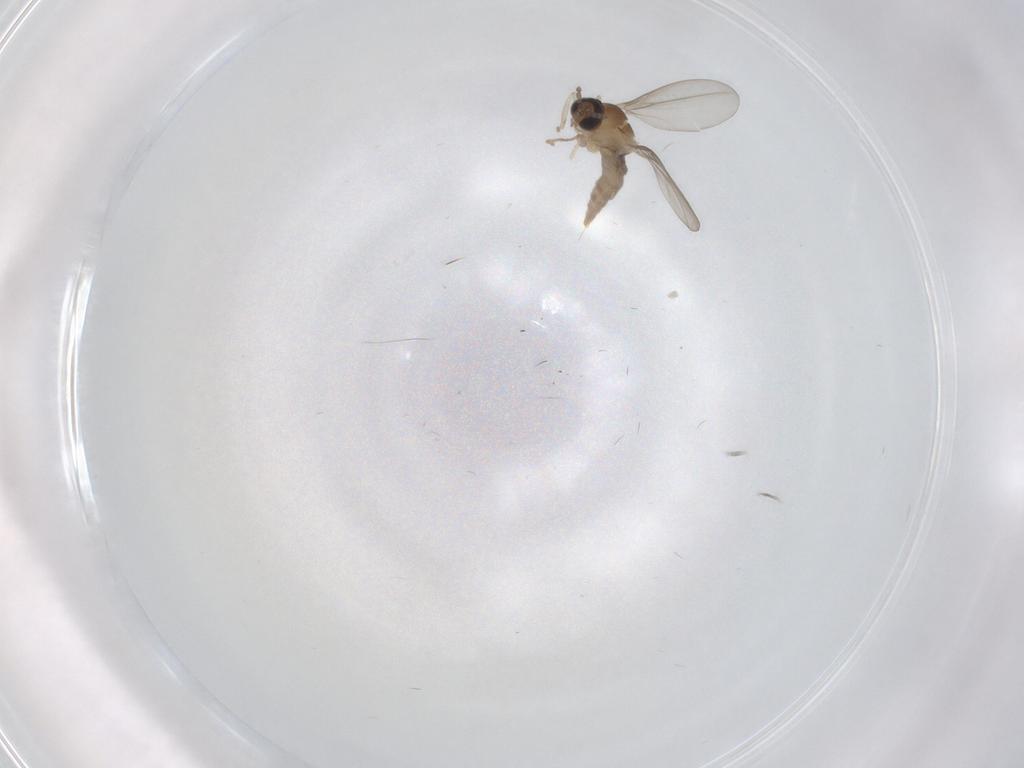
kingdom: Animalia
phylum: Arthropoda
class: Insecta
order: Diptera
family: Cecidomyiidae
